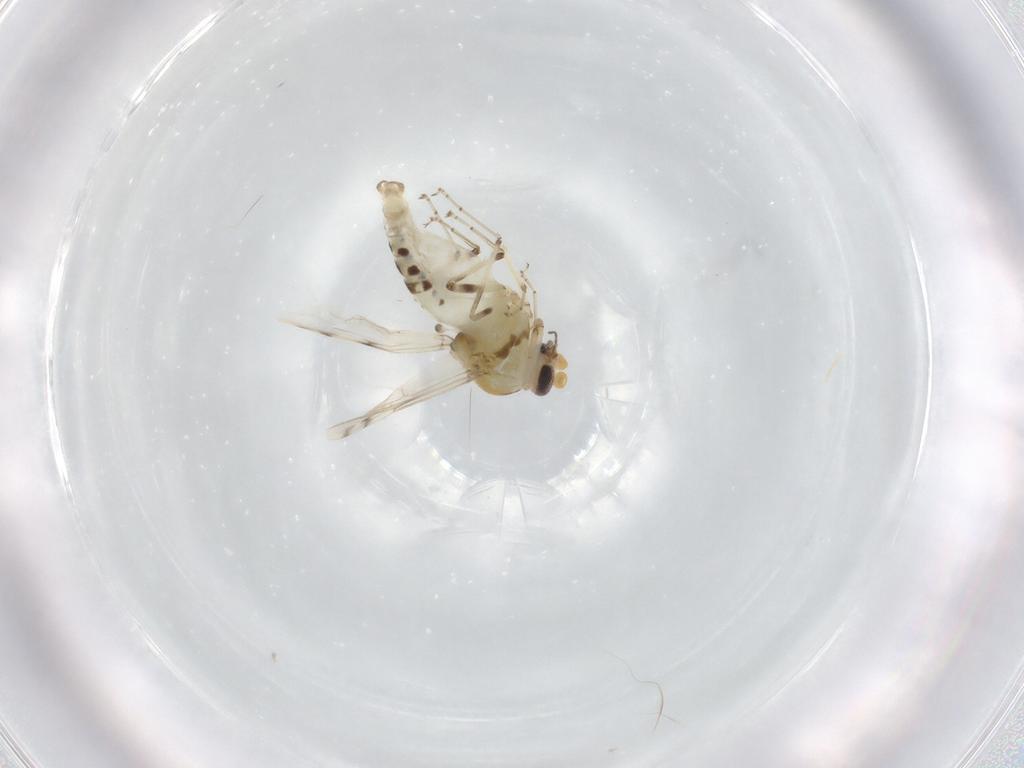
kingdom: Animalia
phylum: Arthropoda
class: Insecta
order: Diptera
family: Ceratopogonidae
